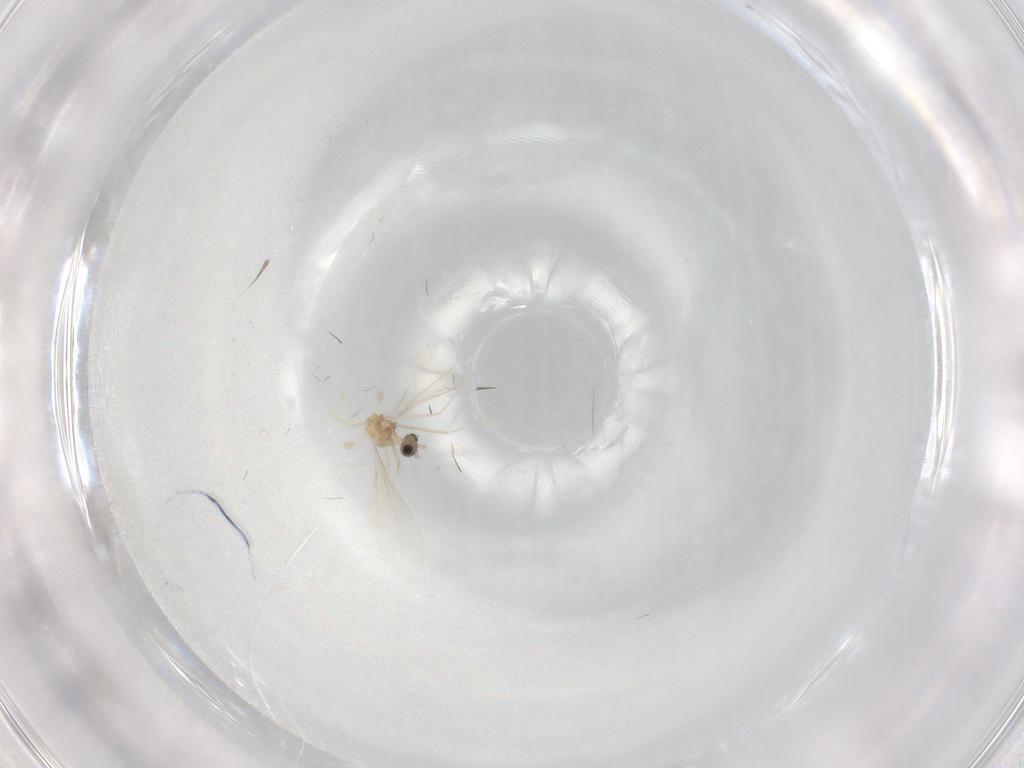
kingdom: Animalia
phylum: Arthropoda
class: Insecta
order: Diptera
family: Cecidomyiidae
